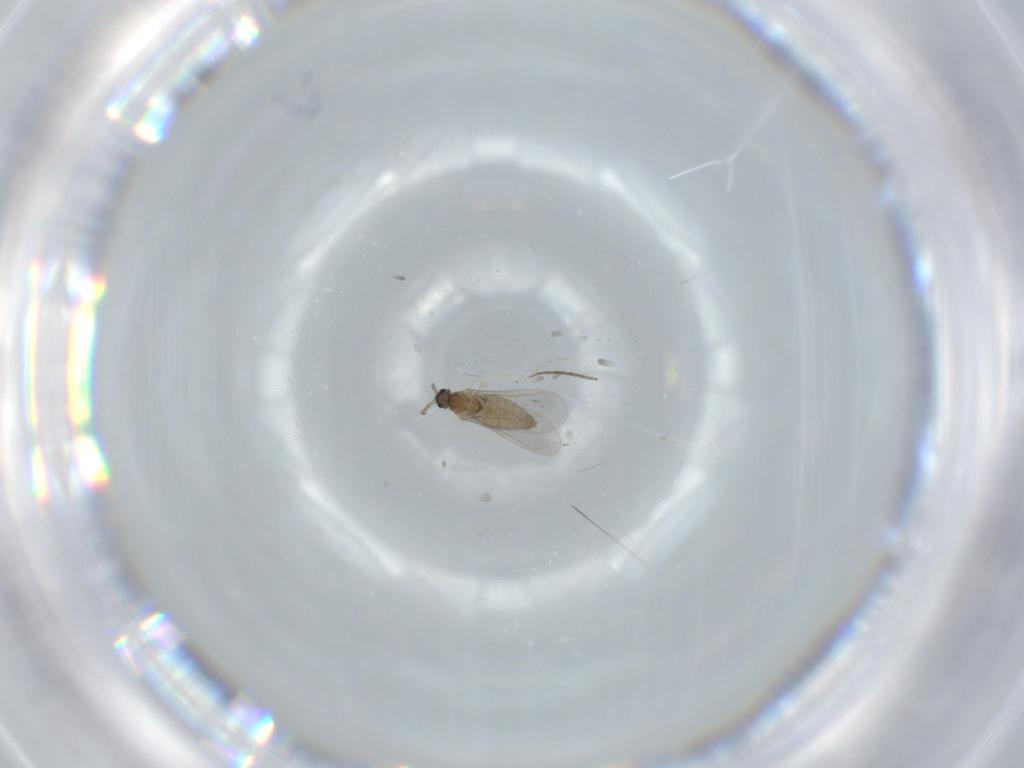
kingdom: Animalia
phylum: Arthropoda
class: Insecta
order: Diptera
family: Cecidomyiidae
